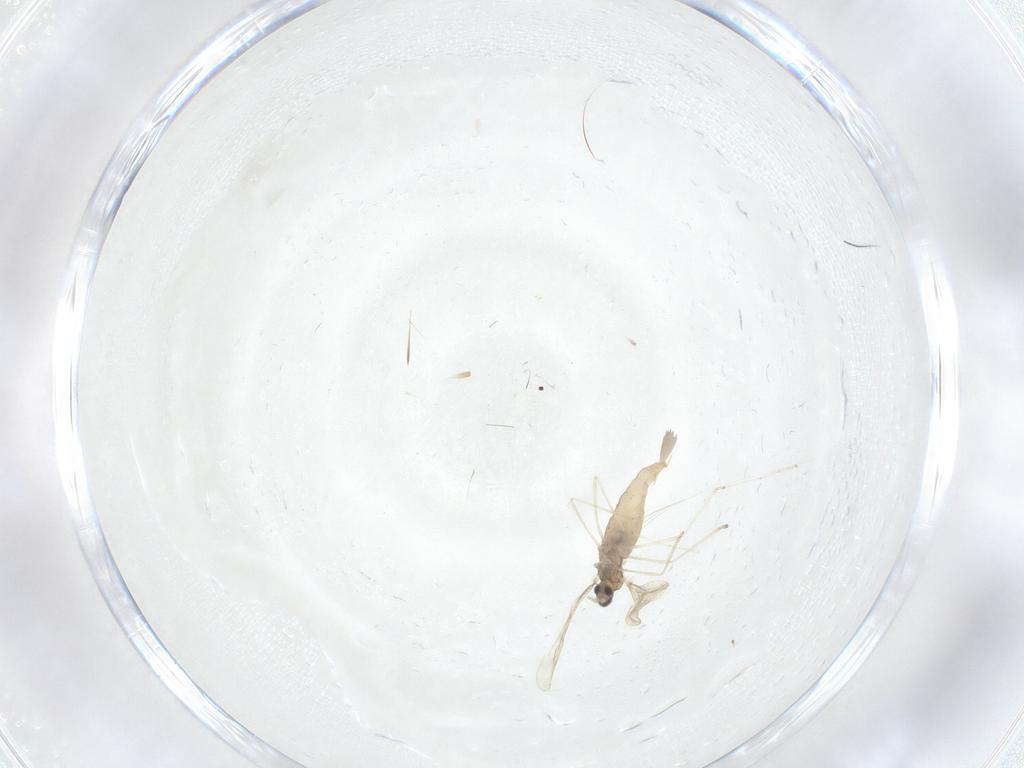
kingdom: Animalia
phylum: Arthropoda
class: Insecta
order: Diptera
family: Cecidomyiidae
